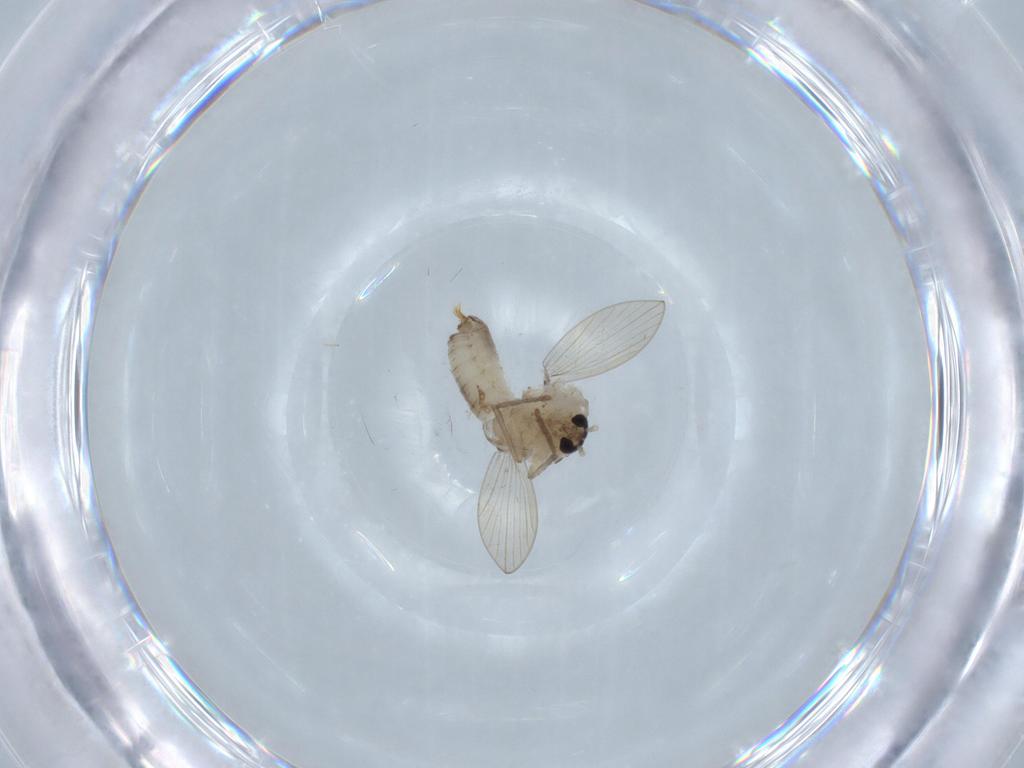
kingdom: Animalia
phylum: Arthropoda
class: Insecta
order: Diptera
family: Psychodidae
